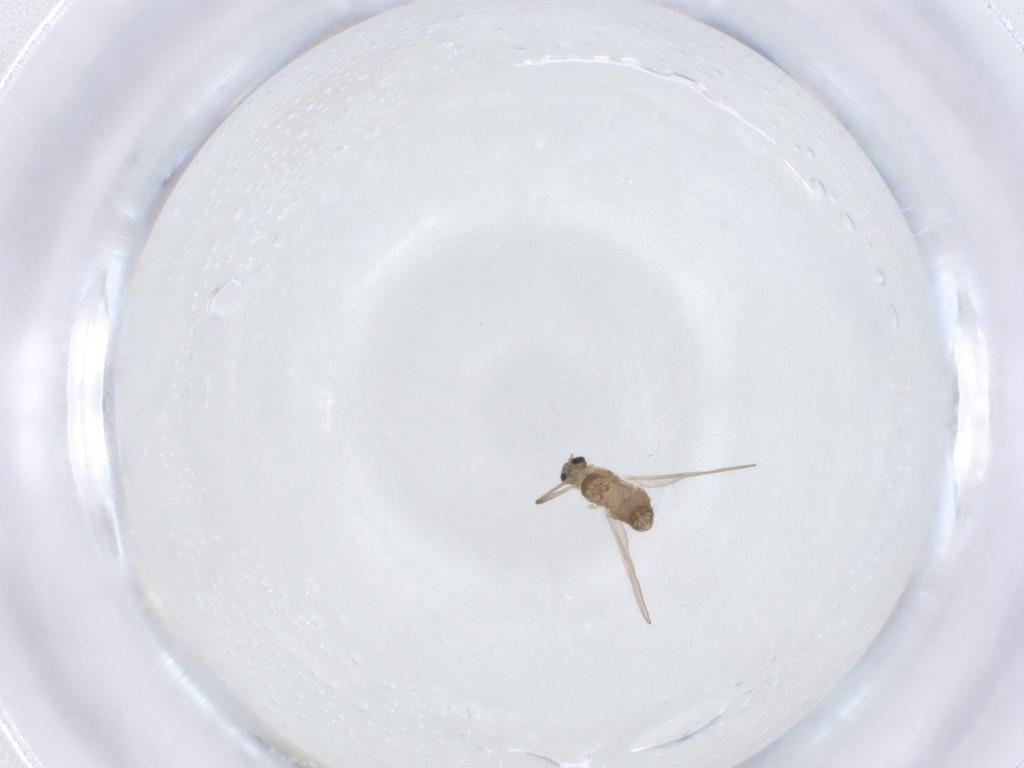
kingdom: Animalia
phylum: Arthropoda
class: Insecta
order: Diptera
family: Chironomidae
